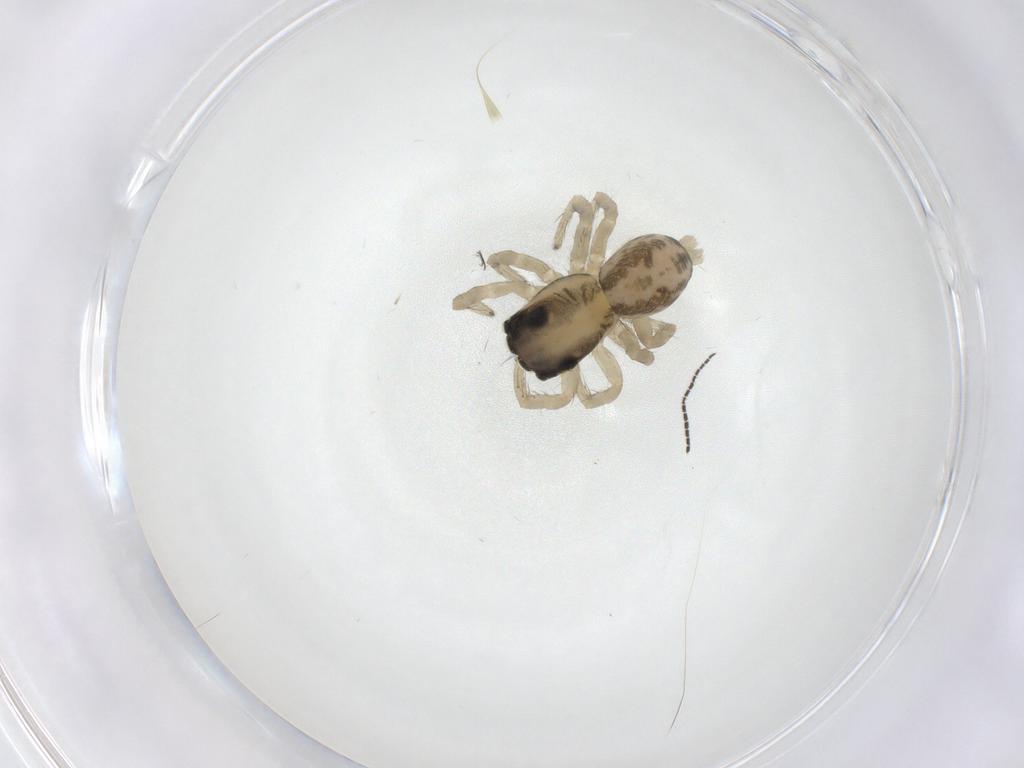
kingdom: Animalia
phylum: Arthropoda
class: Arachnida
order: Araneae
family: Salticidae
